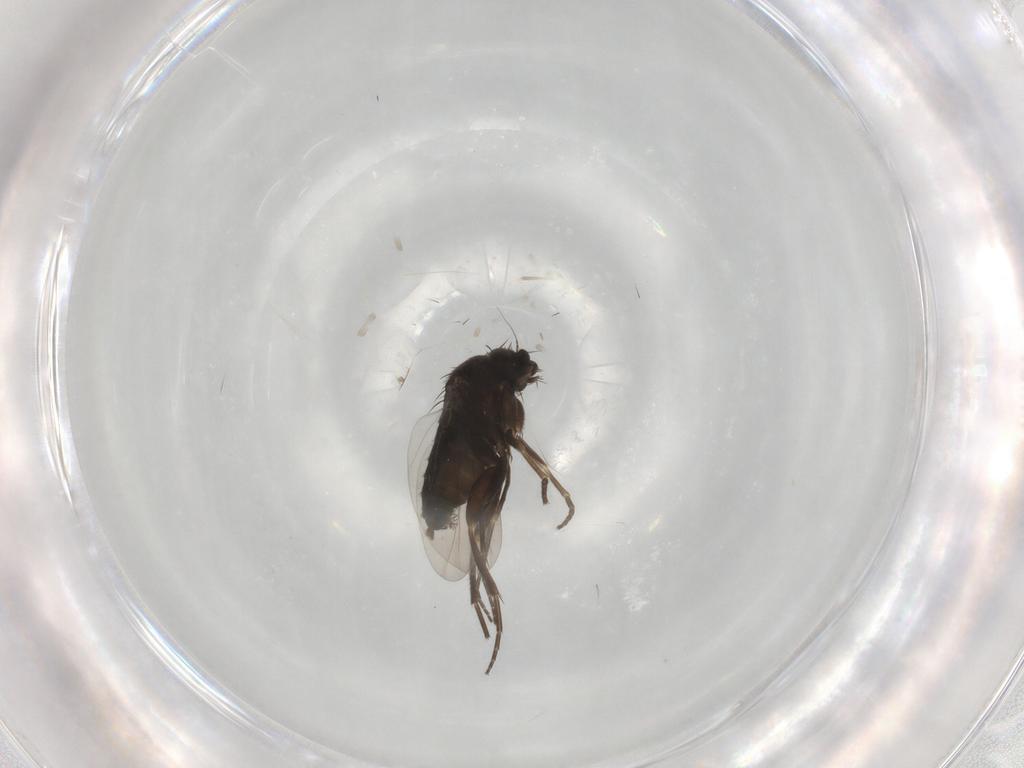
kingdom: Animalia
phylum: Arthropoda
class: Insecta
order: Diptera
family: Phoridae
